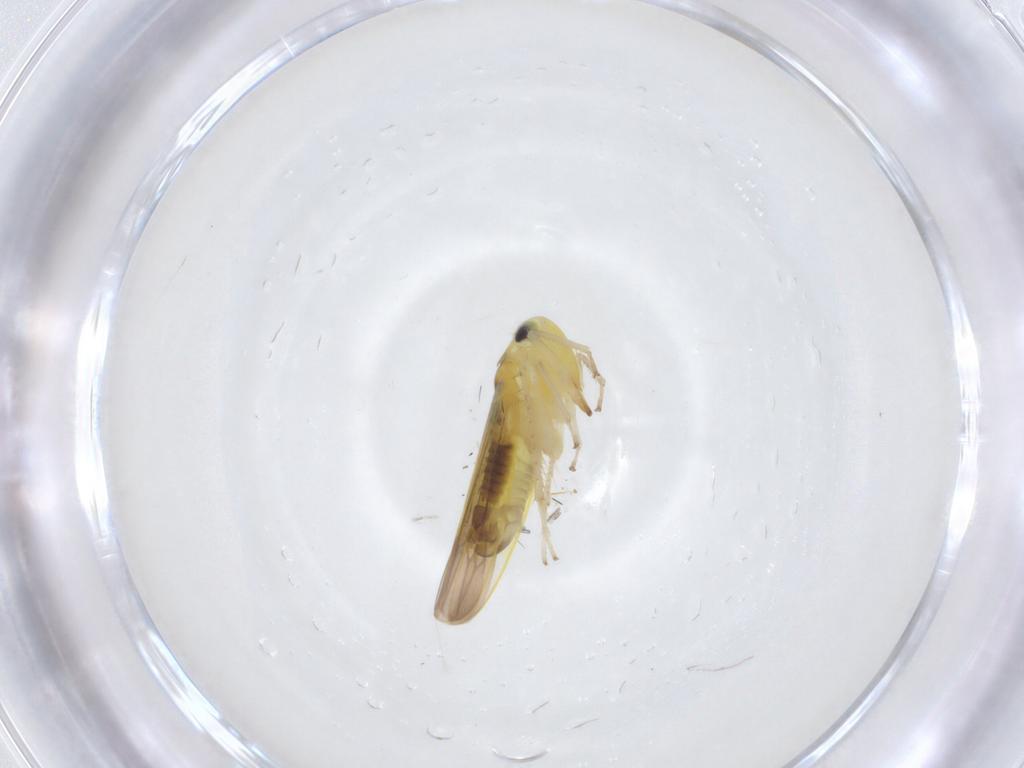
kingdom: Animalia
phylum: Arthropoda
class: Insecta
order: Hemiptera
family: Cicadellidae
